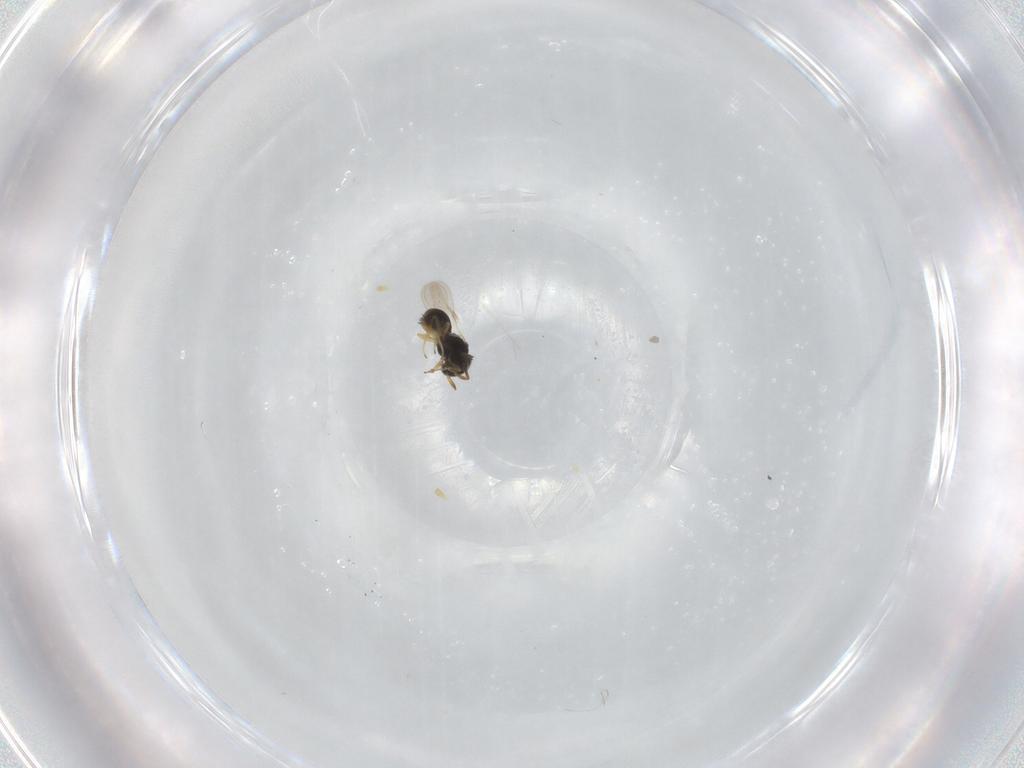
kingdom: Animalia
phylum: Arthropoda
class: Insecta
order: Hymenoptera
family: Scelionidae
